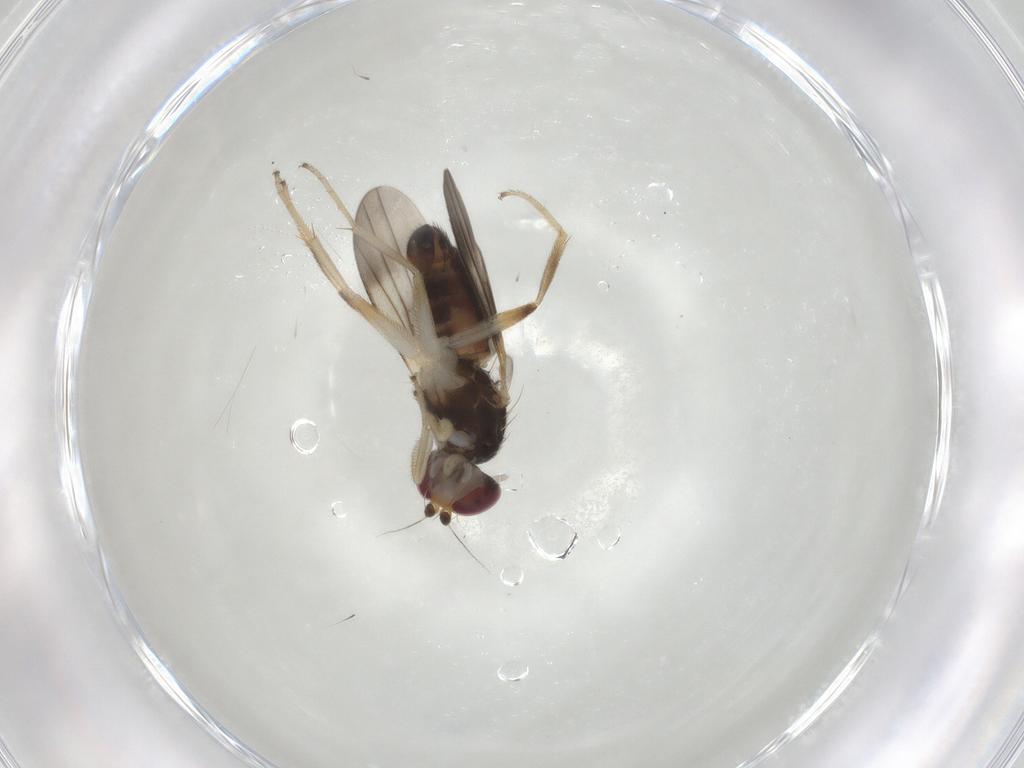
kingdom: Animalia
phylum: Arthropoda
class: Insecta
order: Diptera
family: Clusiidae
